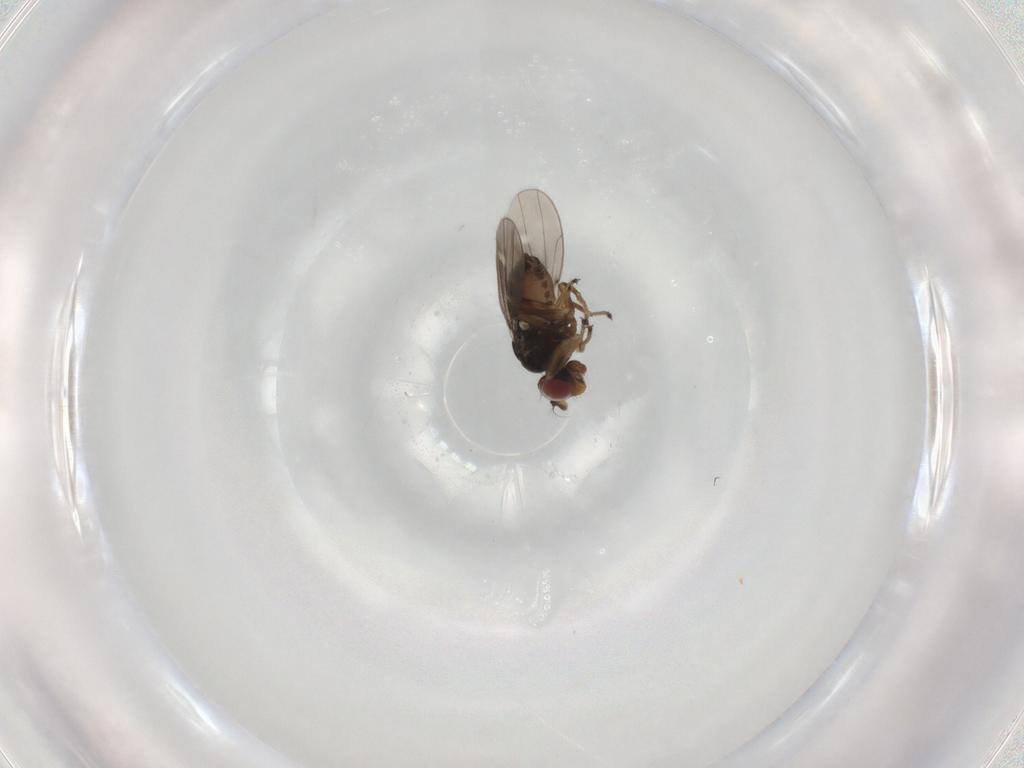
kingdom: Animalia
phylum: Arthropoda
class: Insecta
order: Diptera
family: Ephydridae
